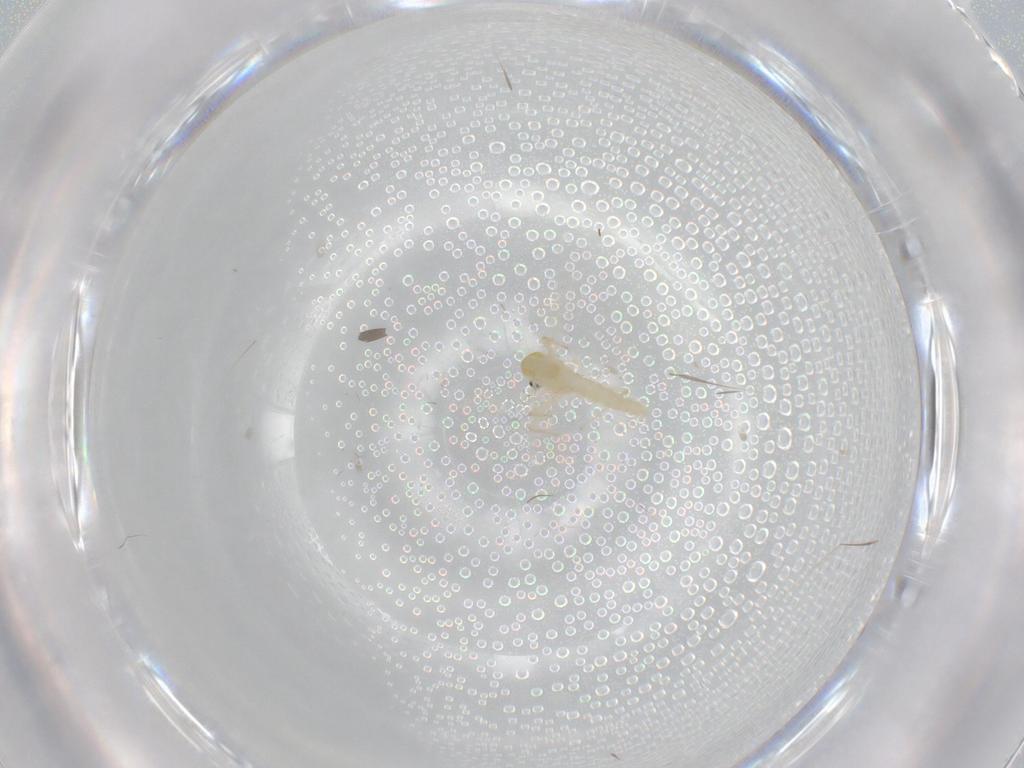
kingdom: Animalia
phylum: Arthropoda
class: Insecta
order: Diptera
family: Chironomidae
